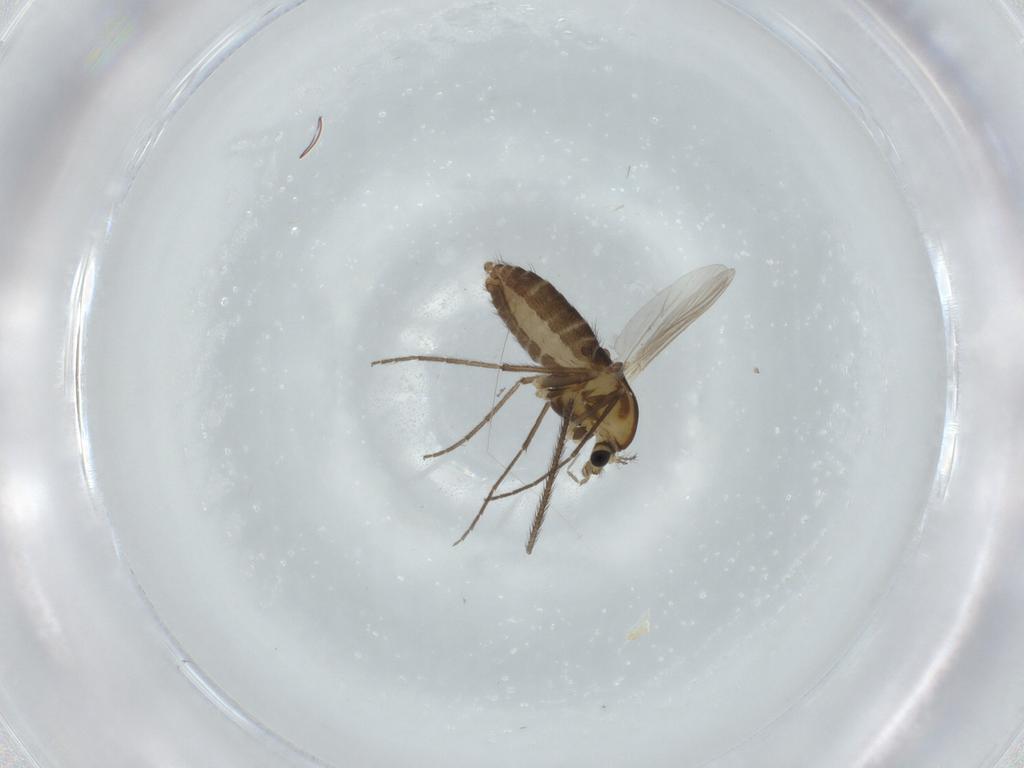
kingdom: Animalia
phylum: Arthropoda
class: Insecta
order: Diptera
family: Chironomidae
